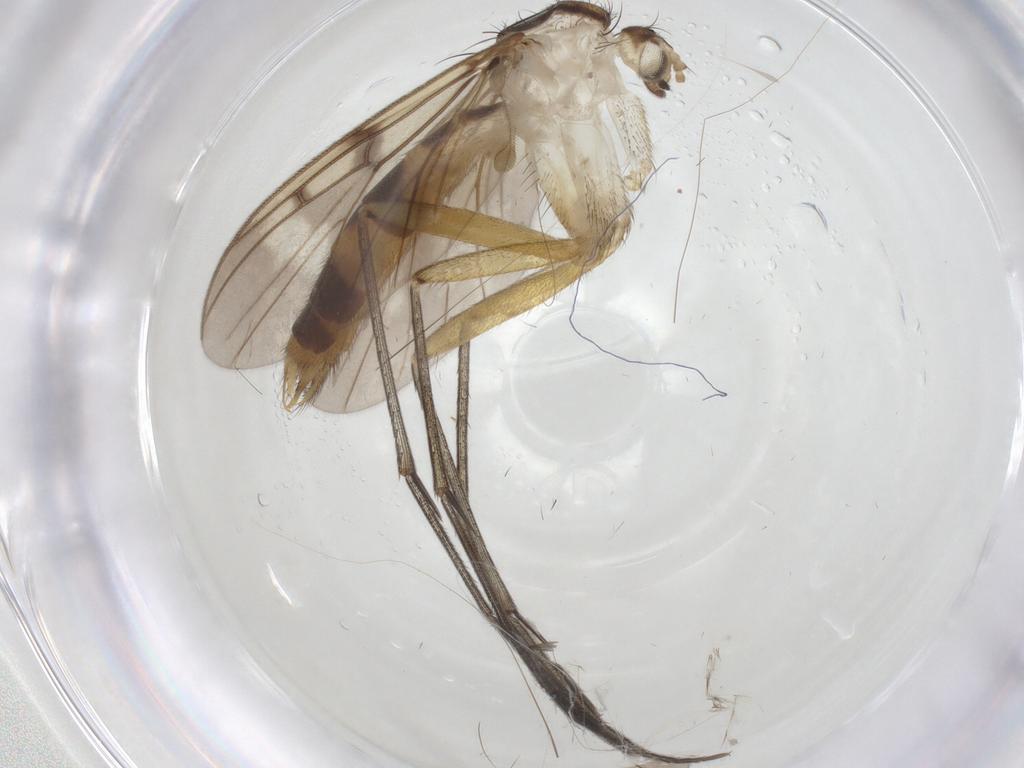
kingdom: Animalia
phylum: Arthropoda
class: Insecta
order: Diptera
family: Mycetophilidae
